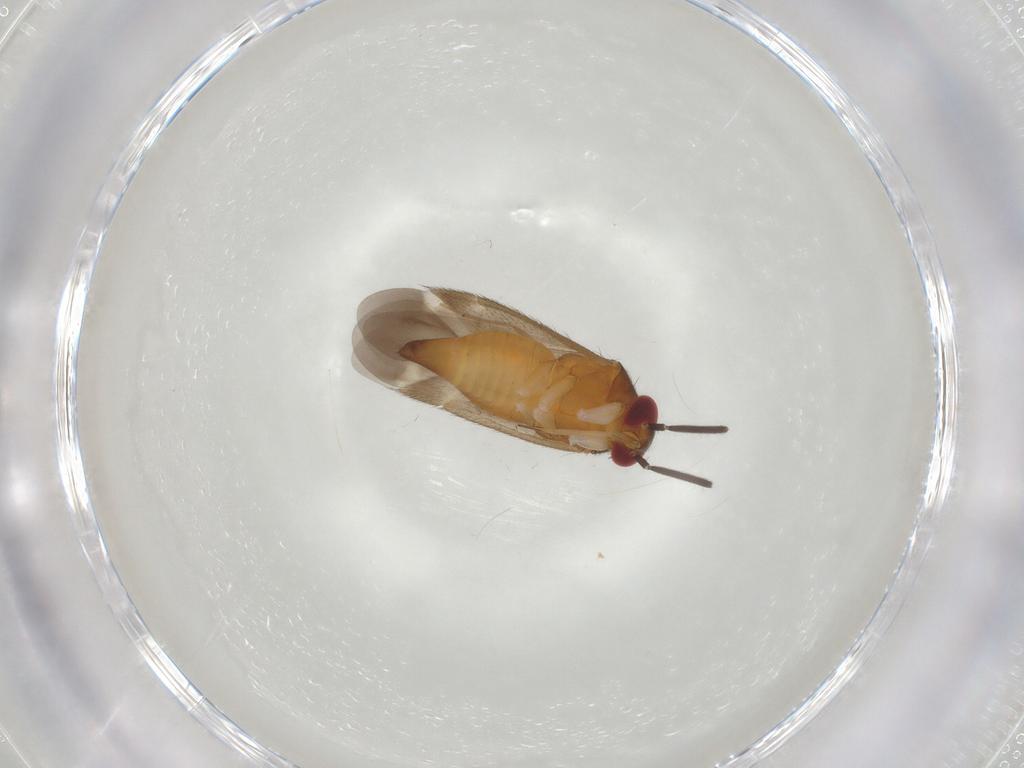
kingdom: Animalia
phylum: Arthropoda
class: Insecta
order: Hemiptera
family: Miridae
